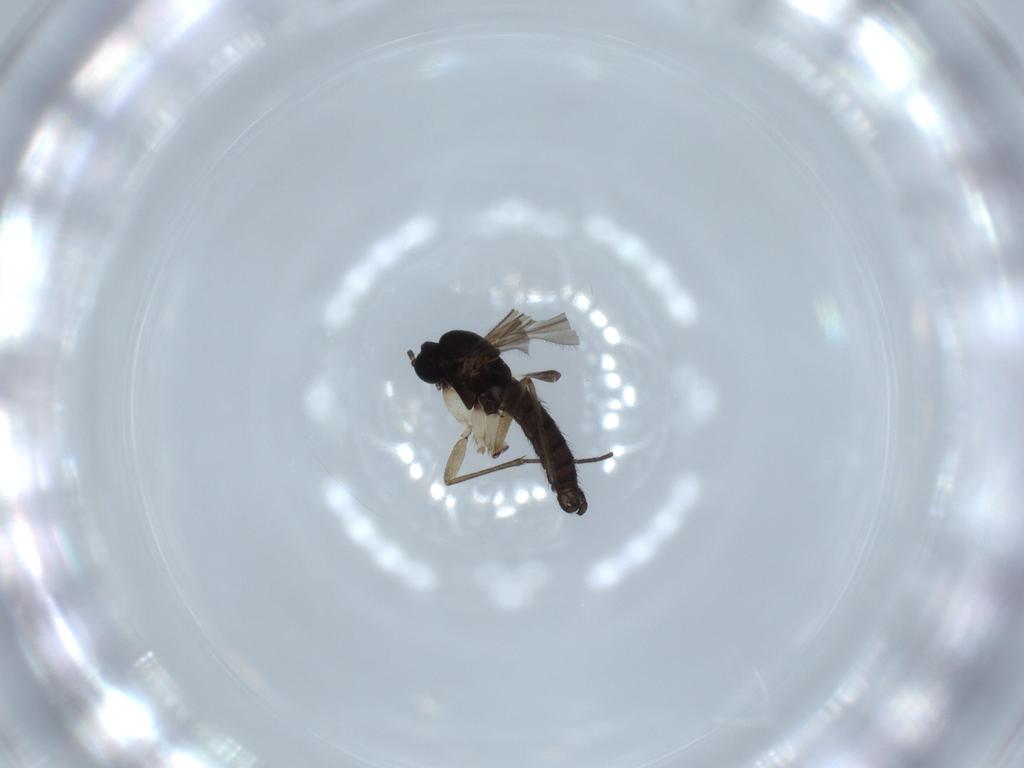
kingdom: Animalia
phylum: Arthropoda
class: Insecta
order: Diptera
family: Sciaridae
